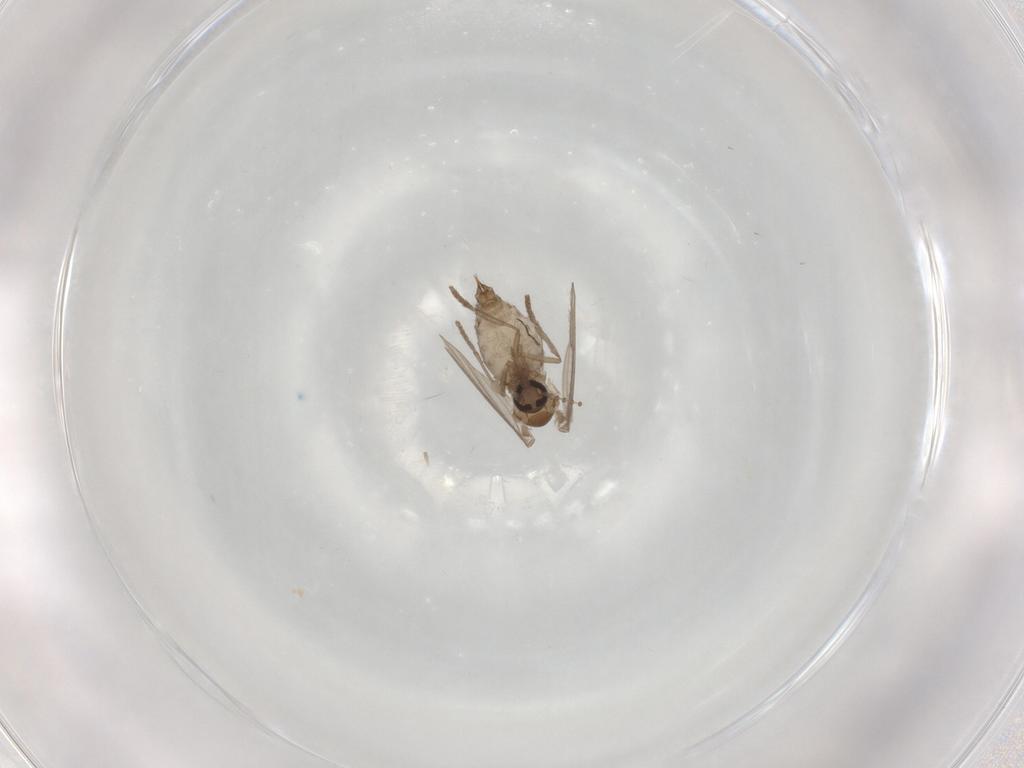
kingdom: Animalia
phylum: Arthropoda
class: Insecta
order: Diptera
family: Psychodidae
